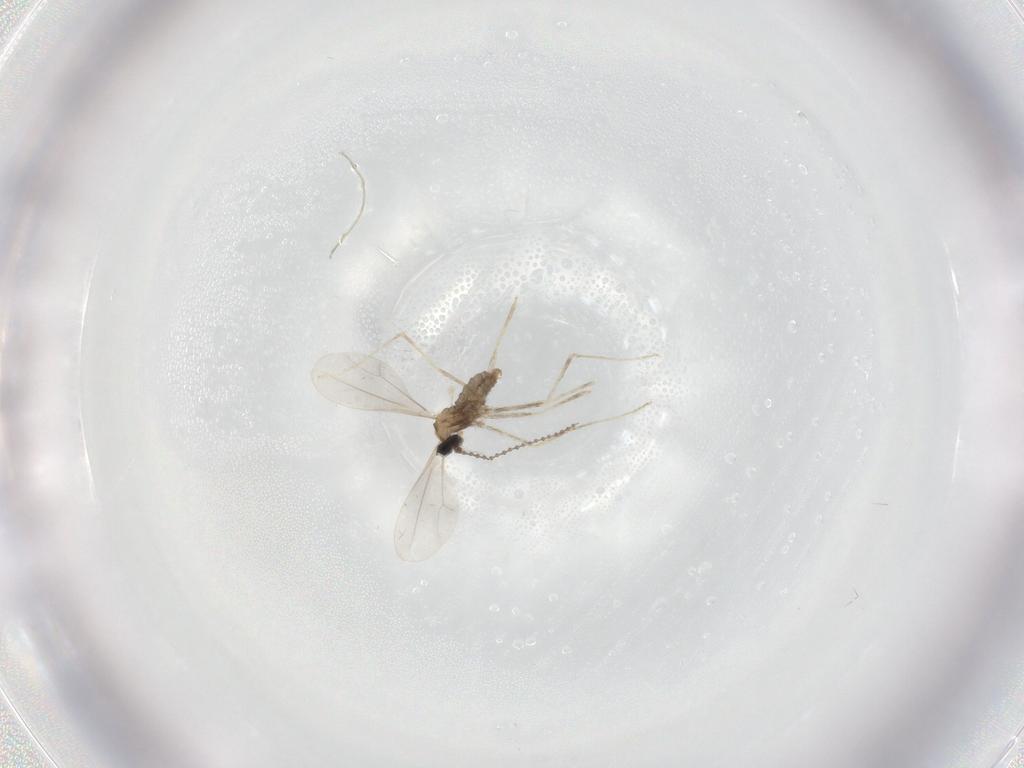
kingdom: Animalia
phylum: Arthropoda
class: Insecta
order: Diptera
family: Cecidomyiidae
